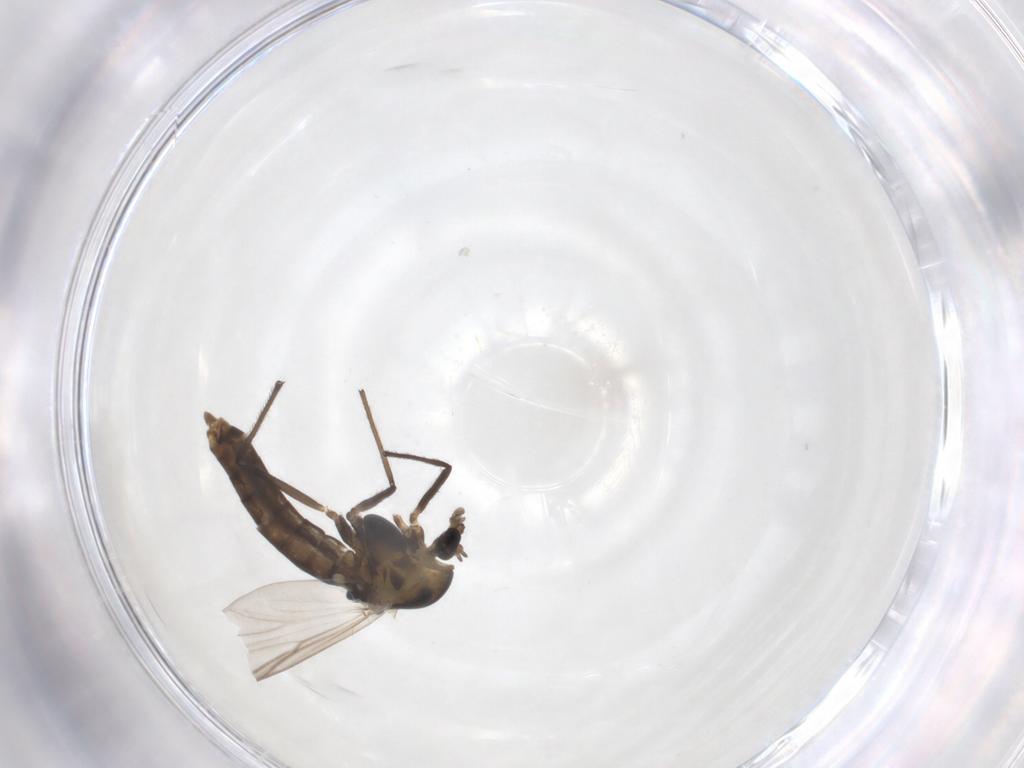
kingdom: Animalia
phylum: Arthropoda
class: Insecta
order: Diptera
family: Chironomidae
